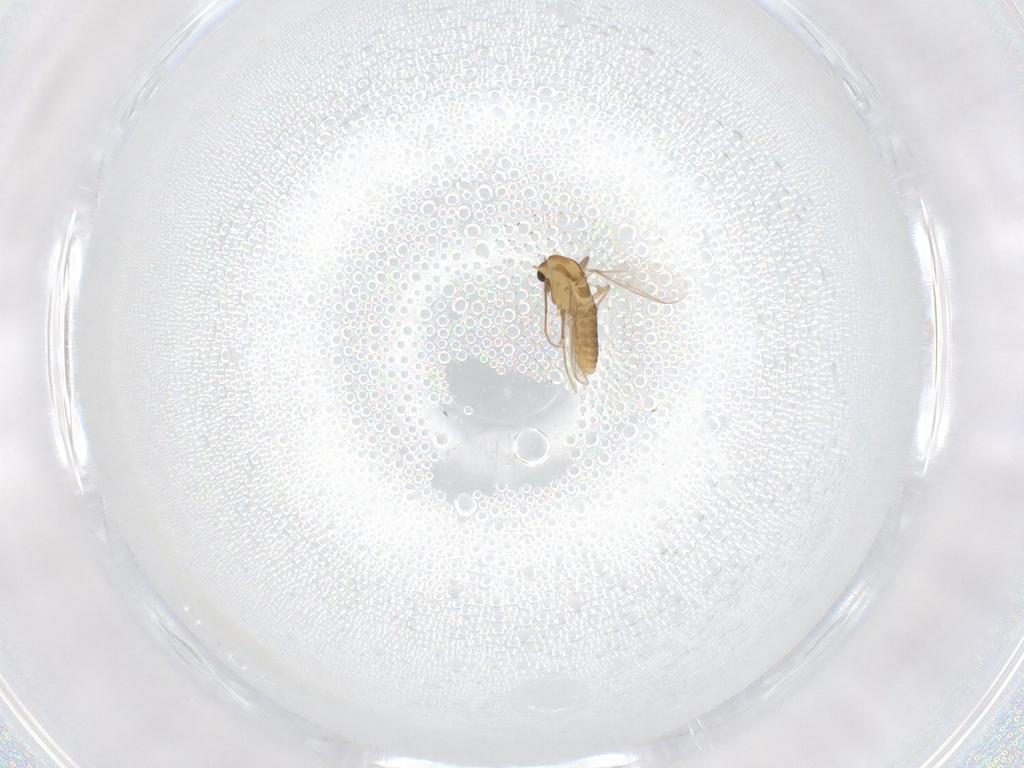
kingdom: Animalia
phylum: Arthropoda
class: Insecta
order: Diptera
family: Chironomidae
